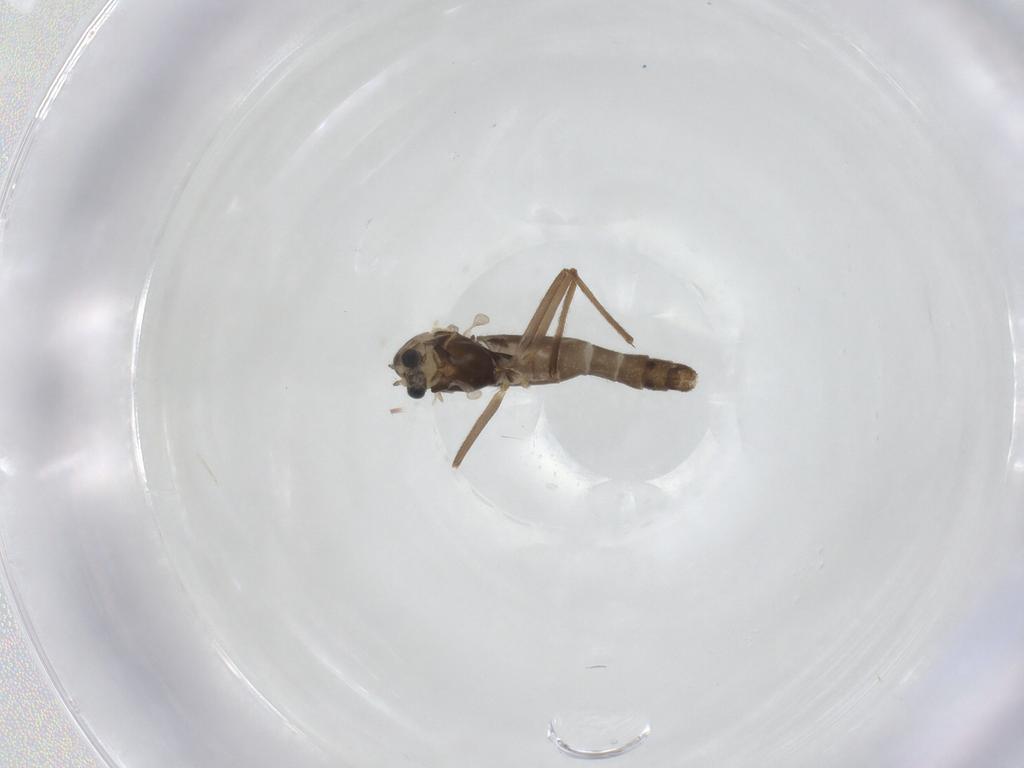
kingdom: Animalia
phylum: Arthropoda
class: Insecta
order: Diptera
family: Chironomidae
